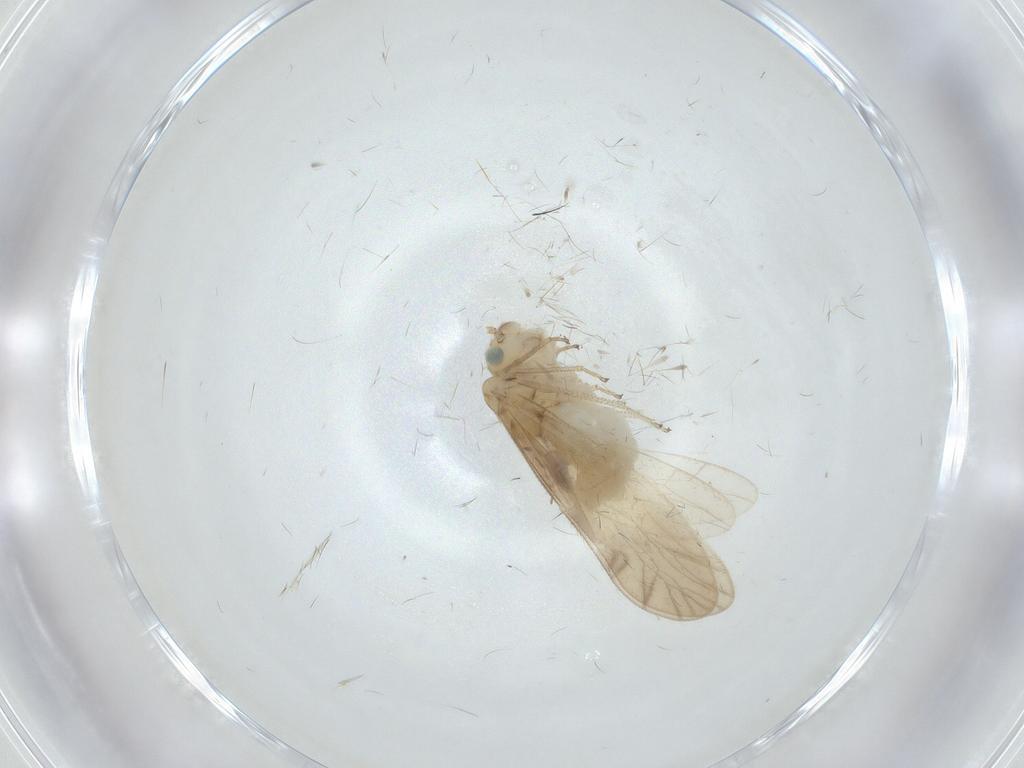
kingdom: Animalia
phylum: Arthropoda
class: Insecta
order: Psocodea
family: Caeciliusidae
